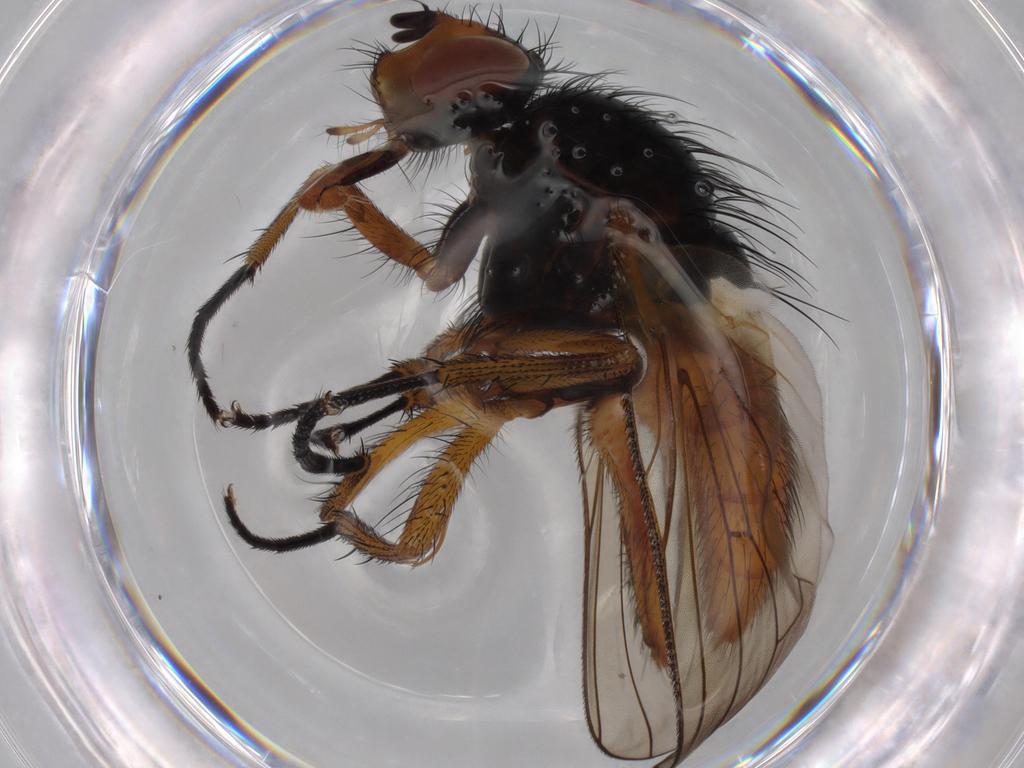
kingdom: Animalia
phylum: Arthropoda
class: Insecta
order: Diptera
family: Anthomyiidae
